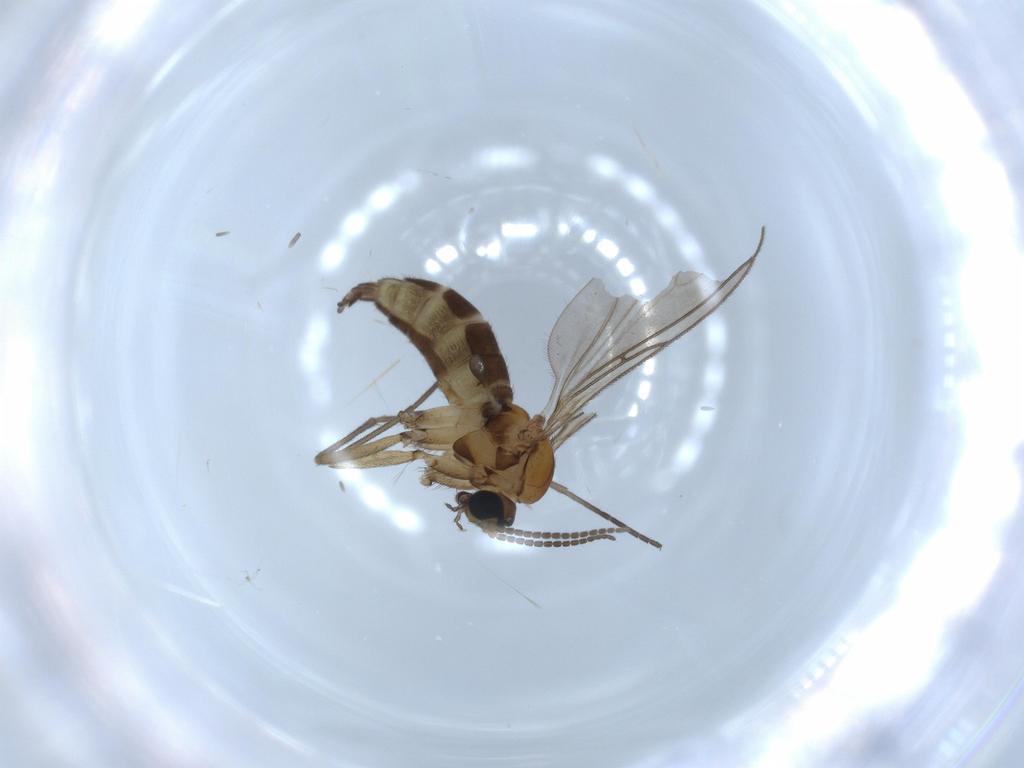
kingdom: Animalia
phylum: Arthropoda
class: Insecta
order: Diptera
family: Sciaridae
